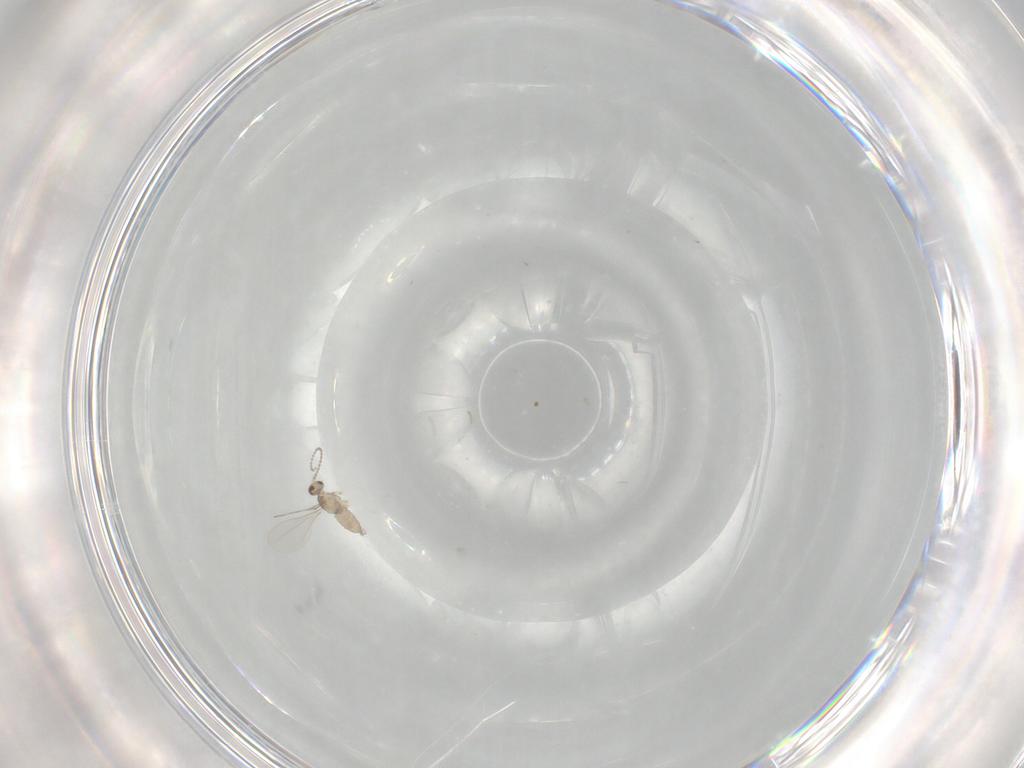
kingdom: Animalia
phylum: Arthropoda
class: Insecta
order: Diptera
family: Cecidomyiidae
